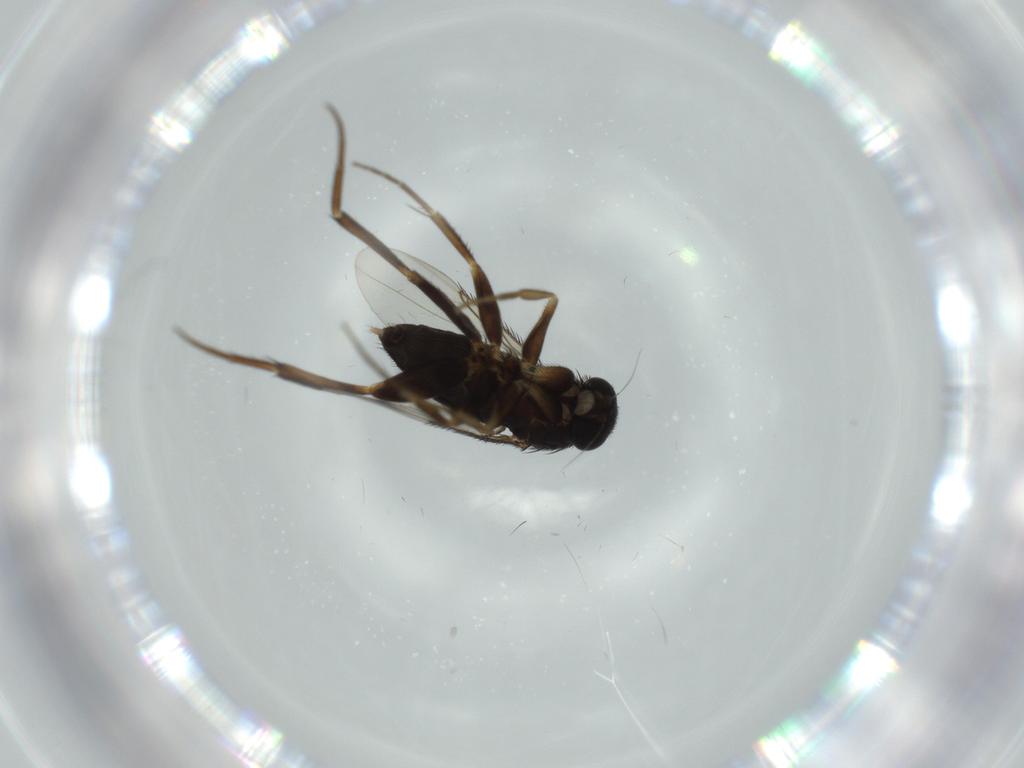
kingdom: Animalia
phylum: Arthropoda
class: Insecta
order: Diptera
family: Phoridae
